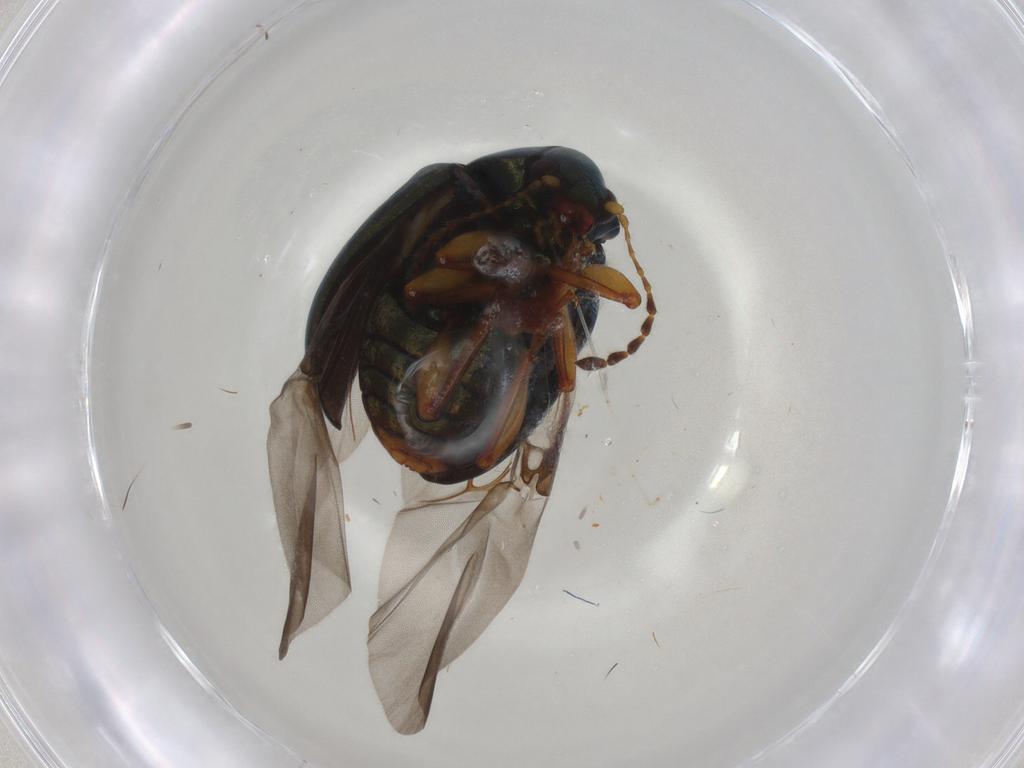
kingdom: Animalia
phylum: Arthropoda
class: Insecta
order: Coleoptera
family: Chrysomelidae
